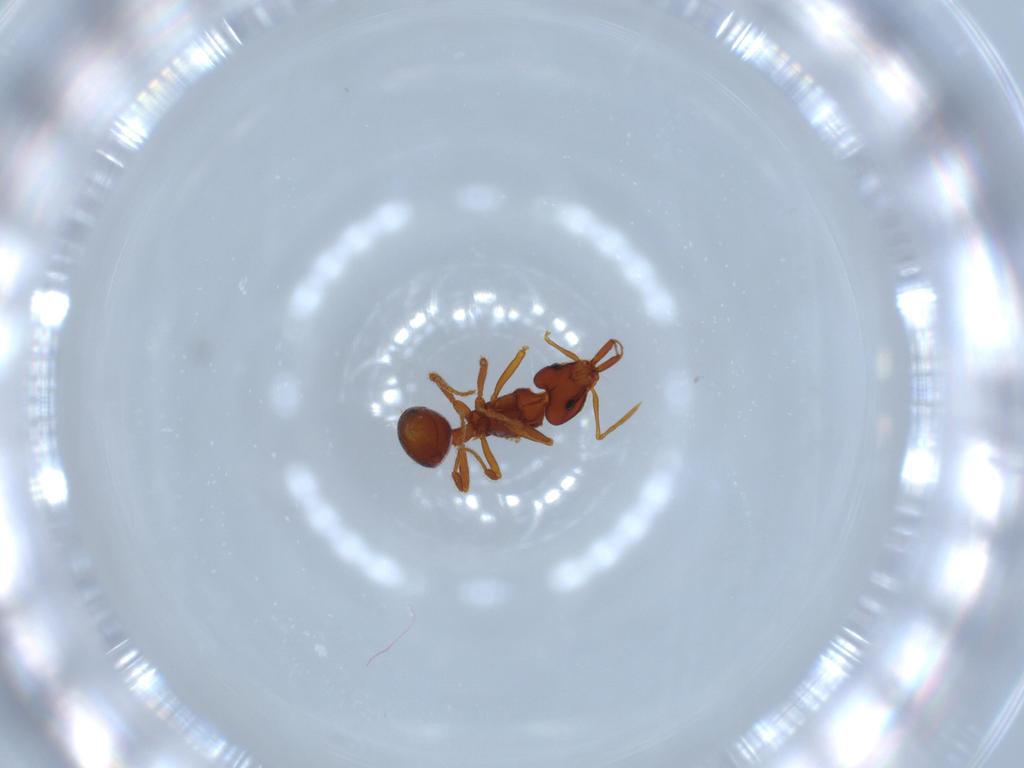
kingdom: Animalia
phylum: Arthropoda
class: Insecta
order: Hymenoptera
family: Formicidae
